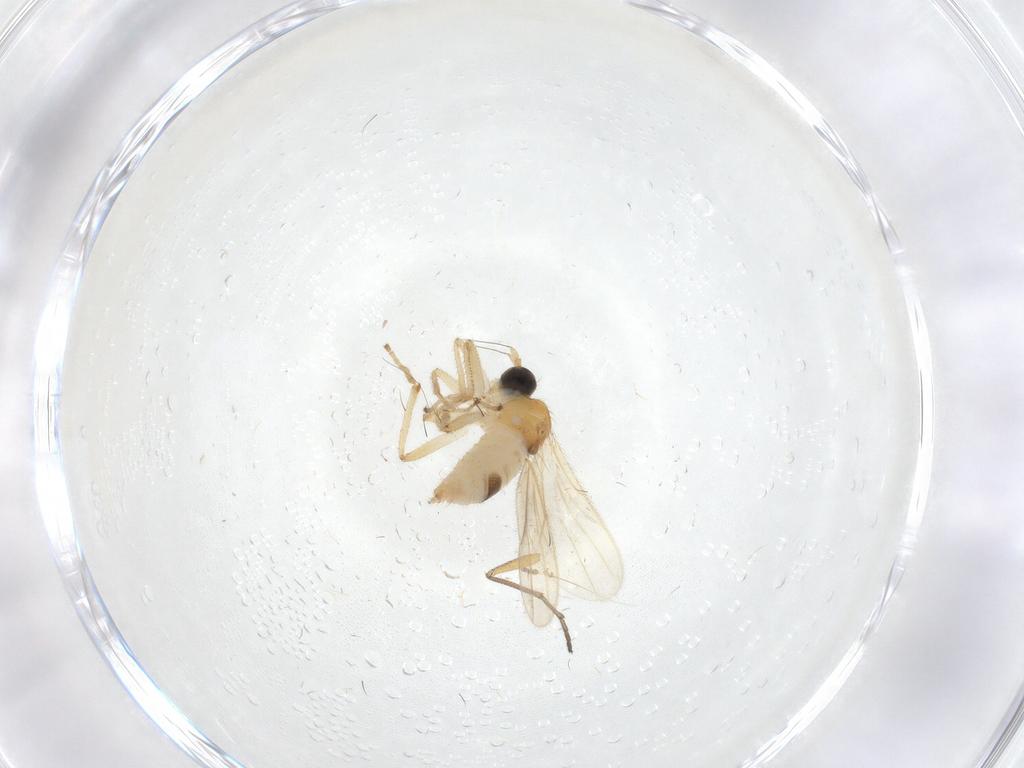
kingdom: Animalia
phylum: Arthropoda
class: Insecta
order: Diptera
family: Hybotidae
